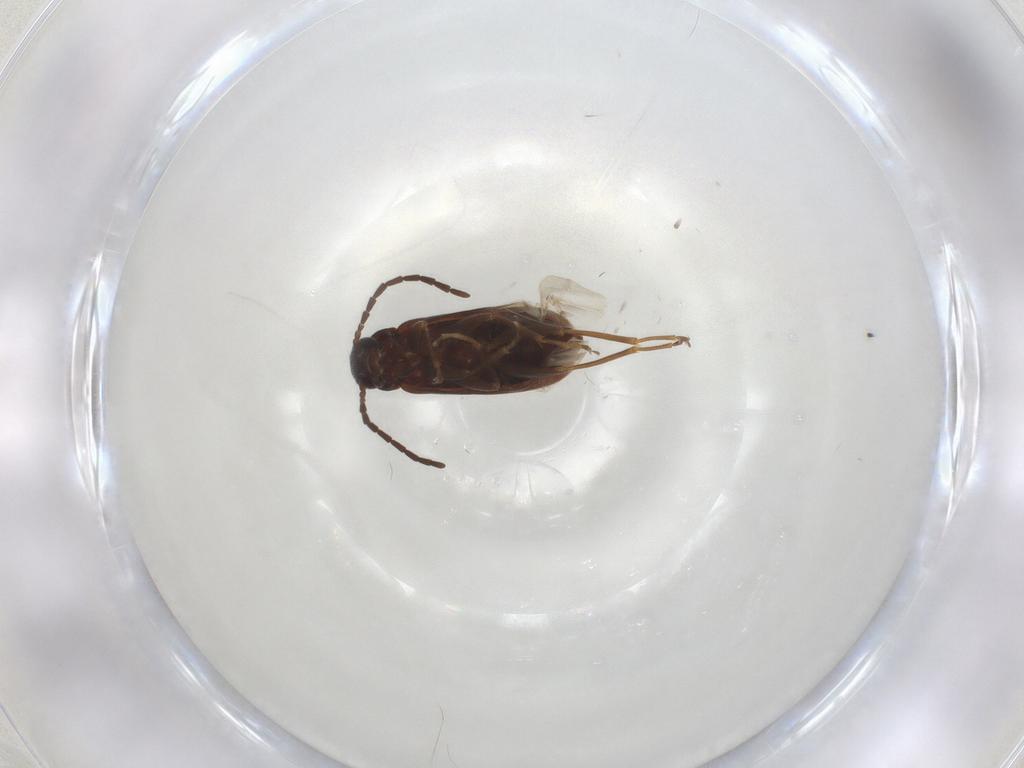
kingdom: Animalia
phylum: Arthropoda
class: Insecta
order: Coleoptera
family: Scraptiidae
